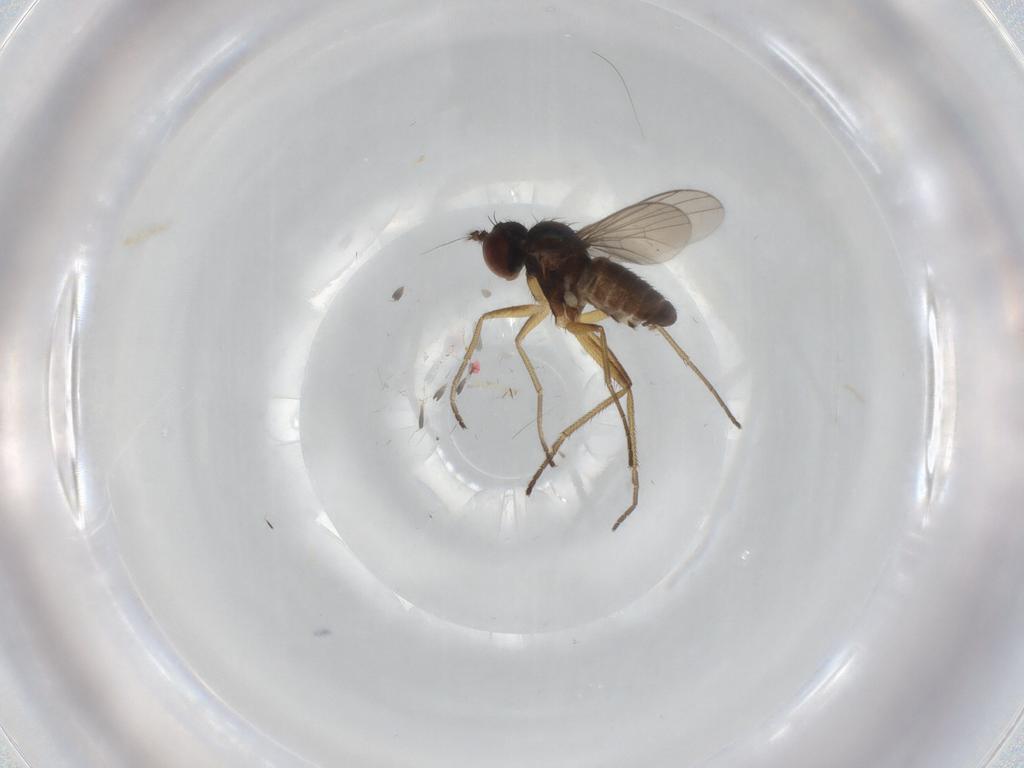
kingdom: Animalia
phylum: Arthropoda
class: Insecta
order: Diptera
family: Dolichopodidae
